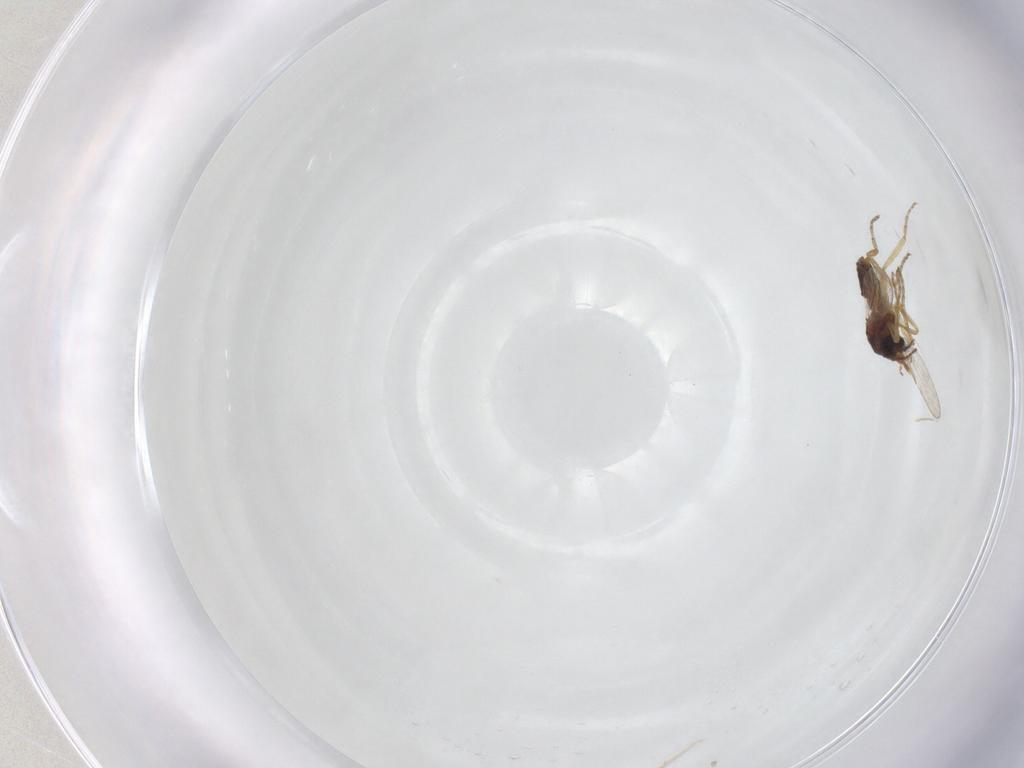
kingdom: Animalia
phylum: Arthropoda
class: Insecta
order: Diptera
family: Ceratopogonidae
